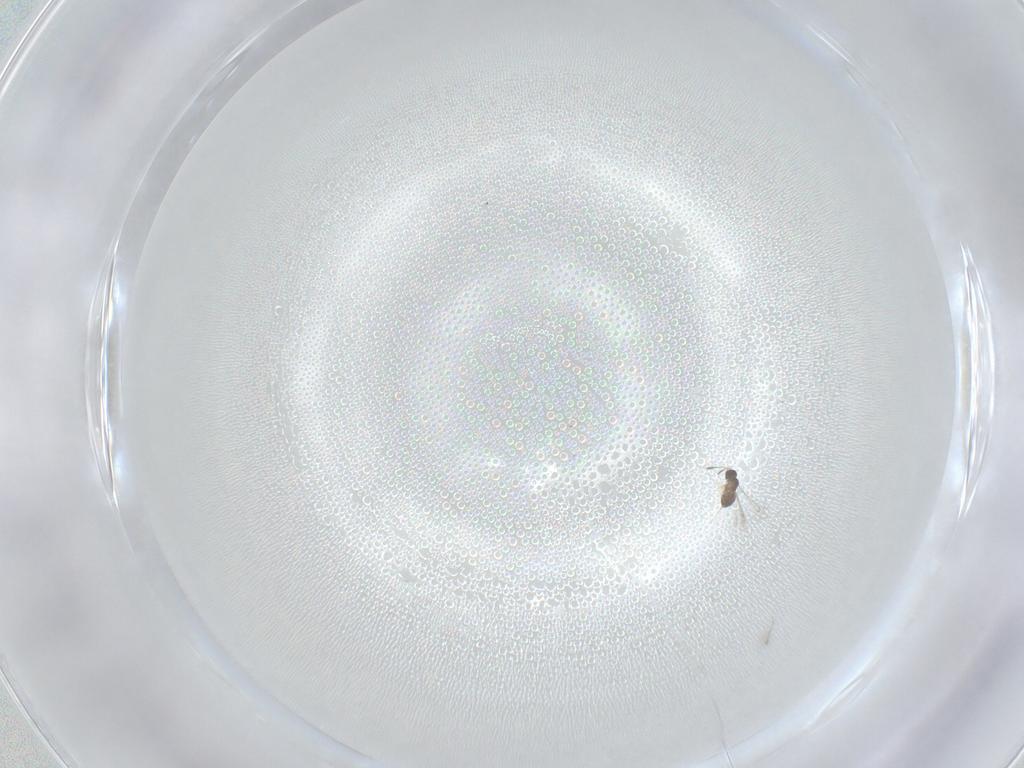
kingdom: Animalia
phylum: Arthropoda
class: Insecta
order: Hymenoptera
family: Mymaridae
